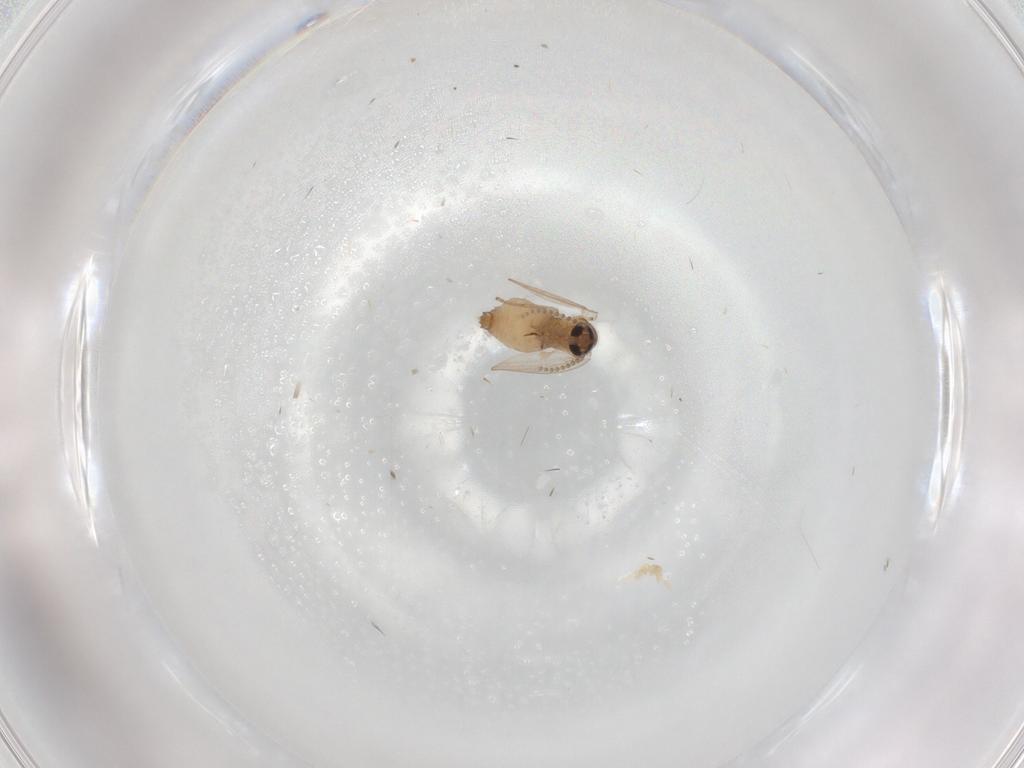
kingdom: Animalia
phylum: Arthropoda
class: Insecta
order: Diptera
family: Psychodidae
